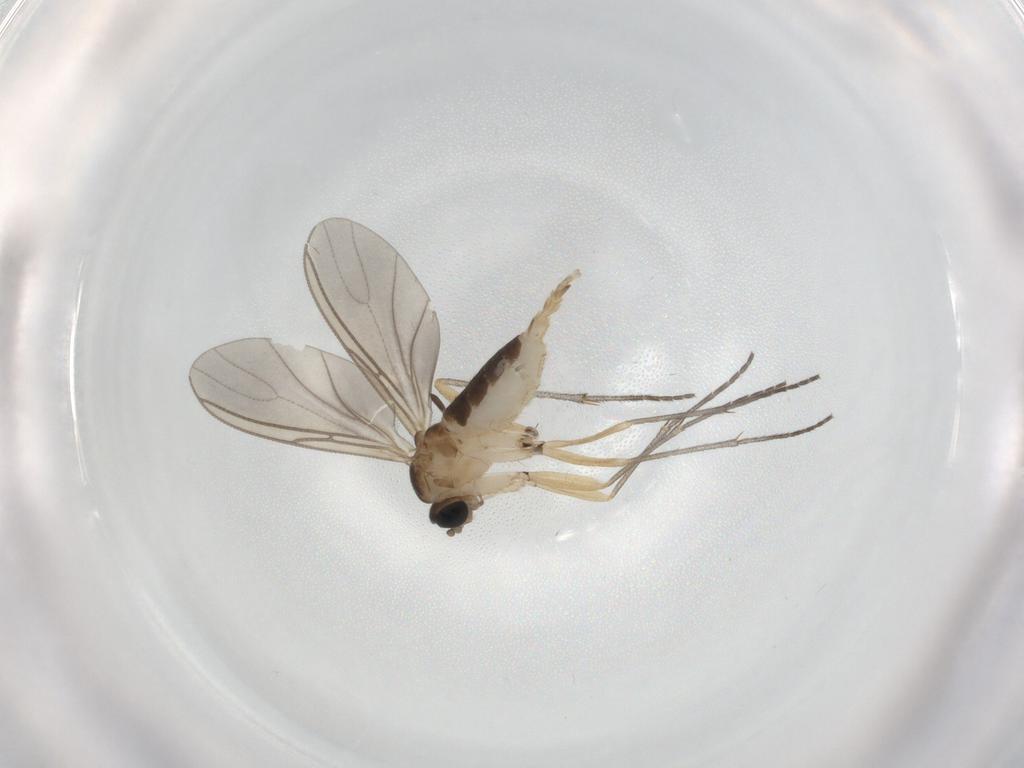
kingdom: Animalia
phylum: Arthropoda
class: Insecta
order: Diptera
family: Sciaridae
